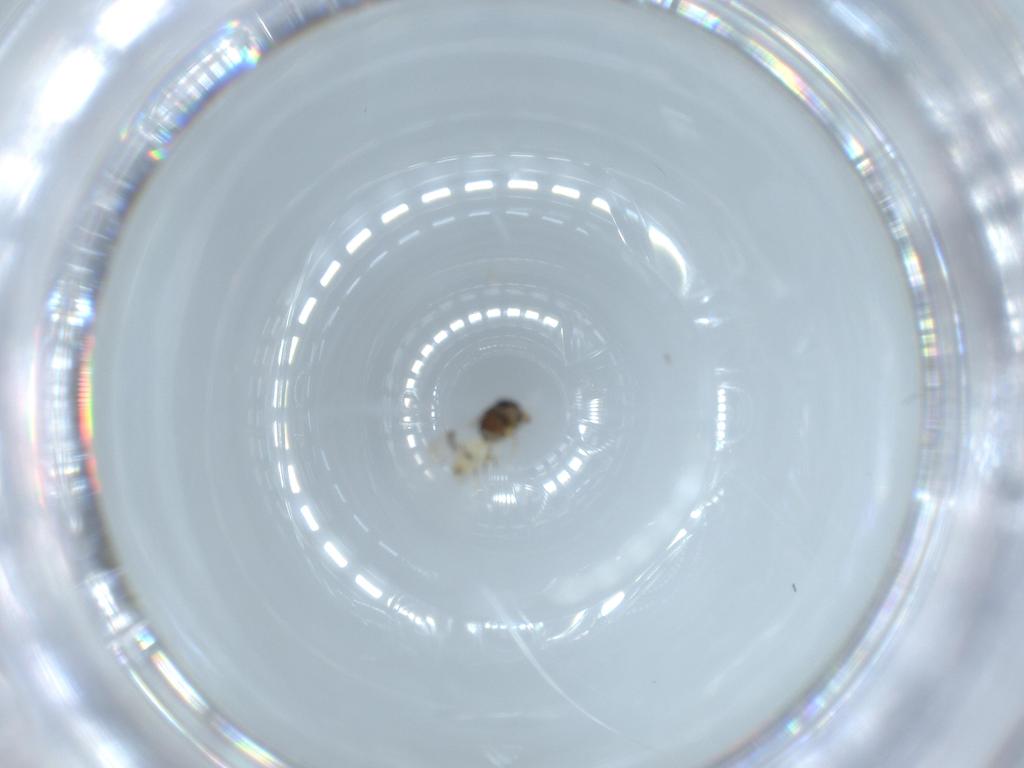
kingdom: Animalia
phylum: Arthropoda
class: Insecta
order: Hymenoptera
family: Scelionidae
